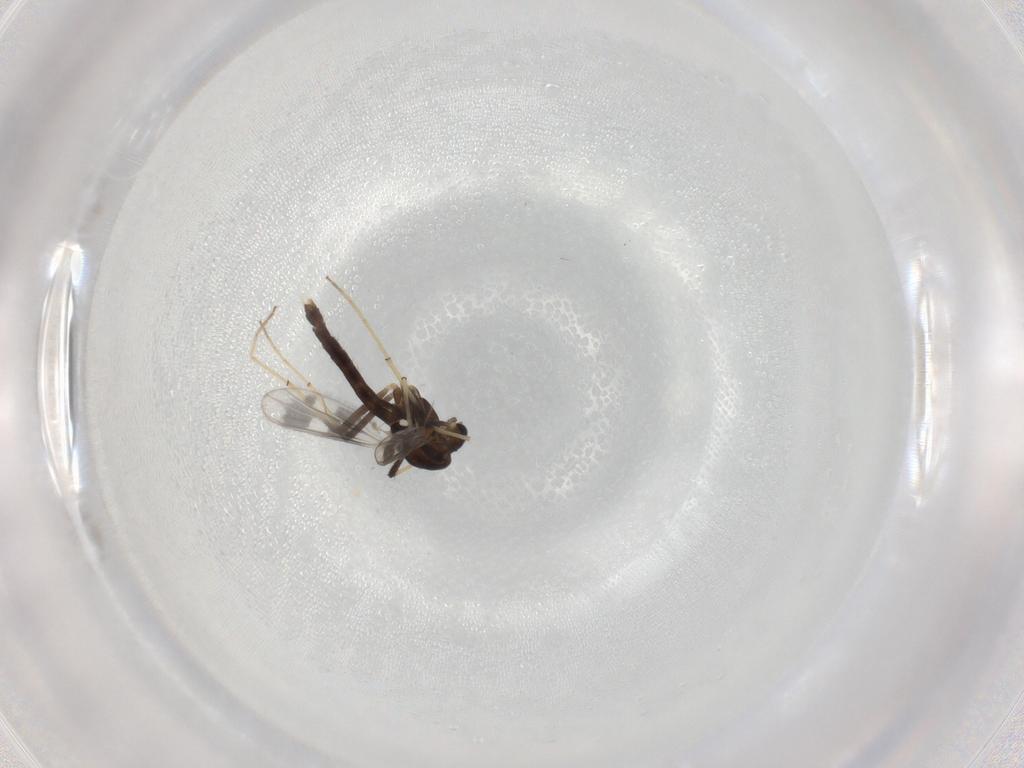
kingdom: Animalia
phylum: Arthropoda
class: Insecta
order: Diptera
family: Chironomidae
